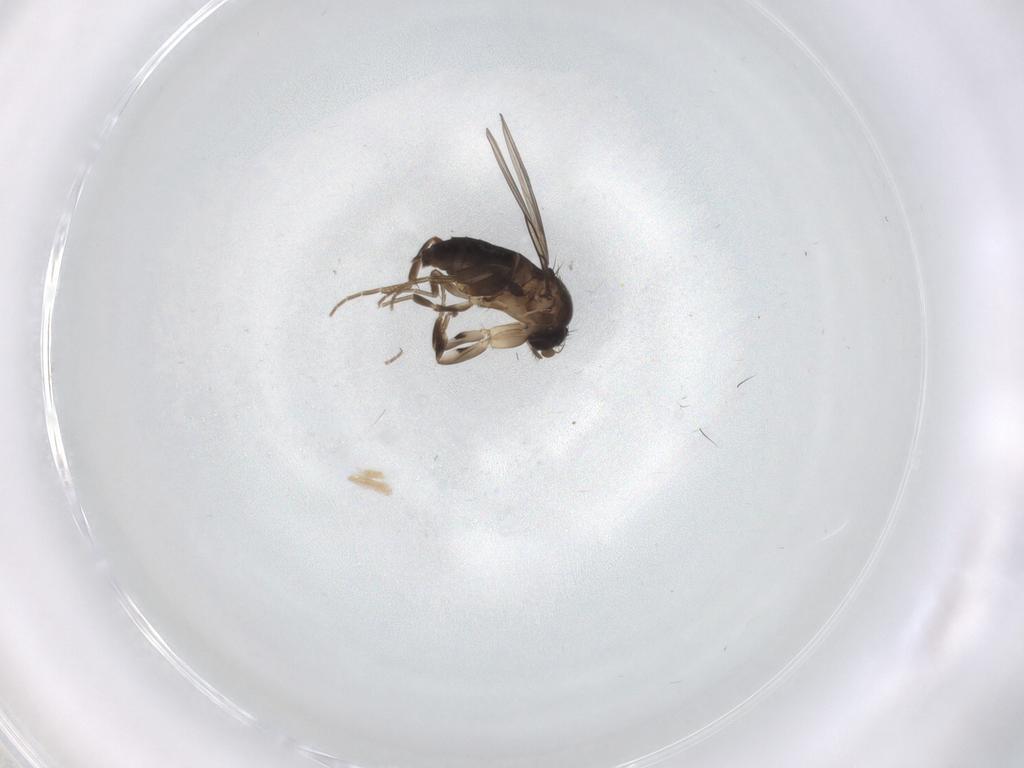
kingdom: Animalia
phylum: Arthropoda
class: Insecta
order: Diptera
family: Phoridae
